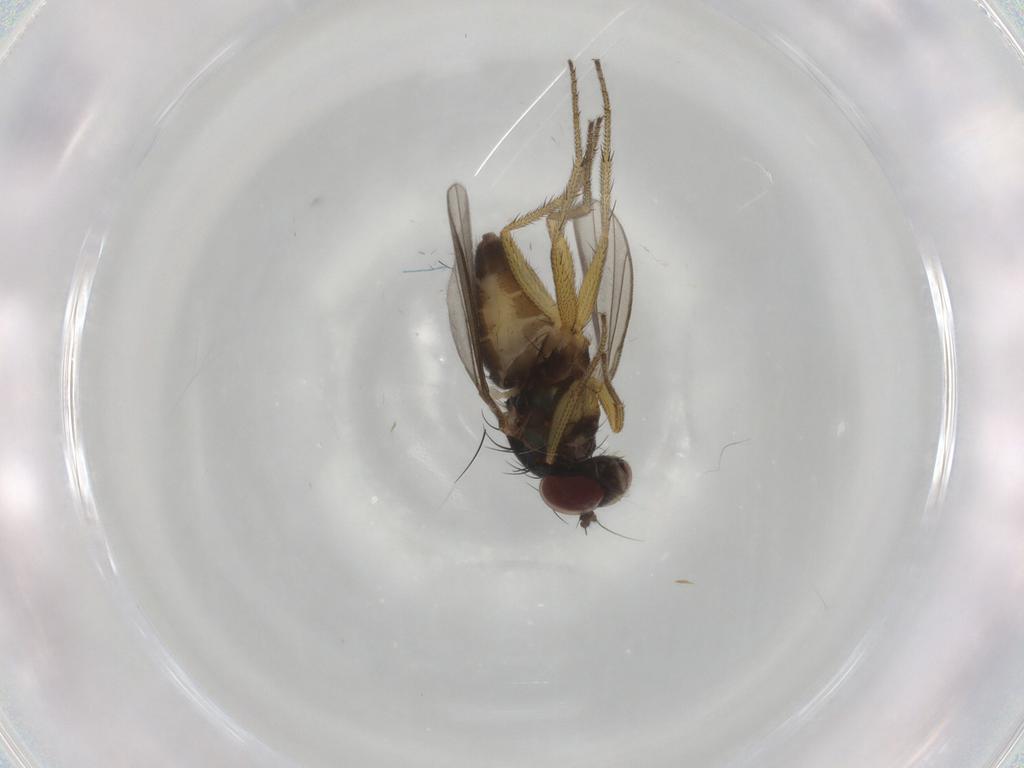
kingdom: Animalia
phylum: Arthropoda
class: Insecta
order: Diptera
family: Dolichopodidae
